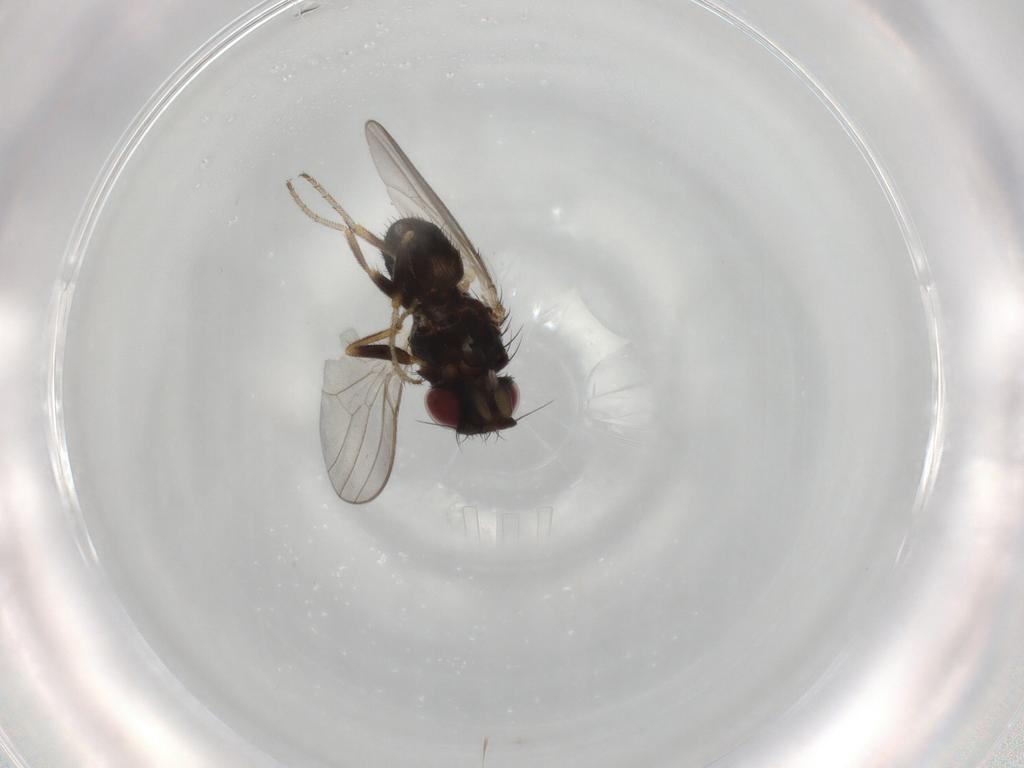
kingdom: Animalia
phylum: Arthropoda
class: Insecta
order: Diptera
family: Milichiidae
